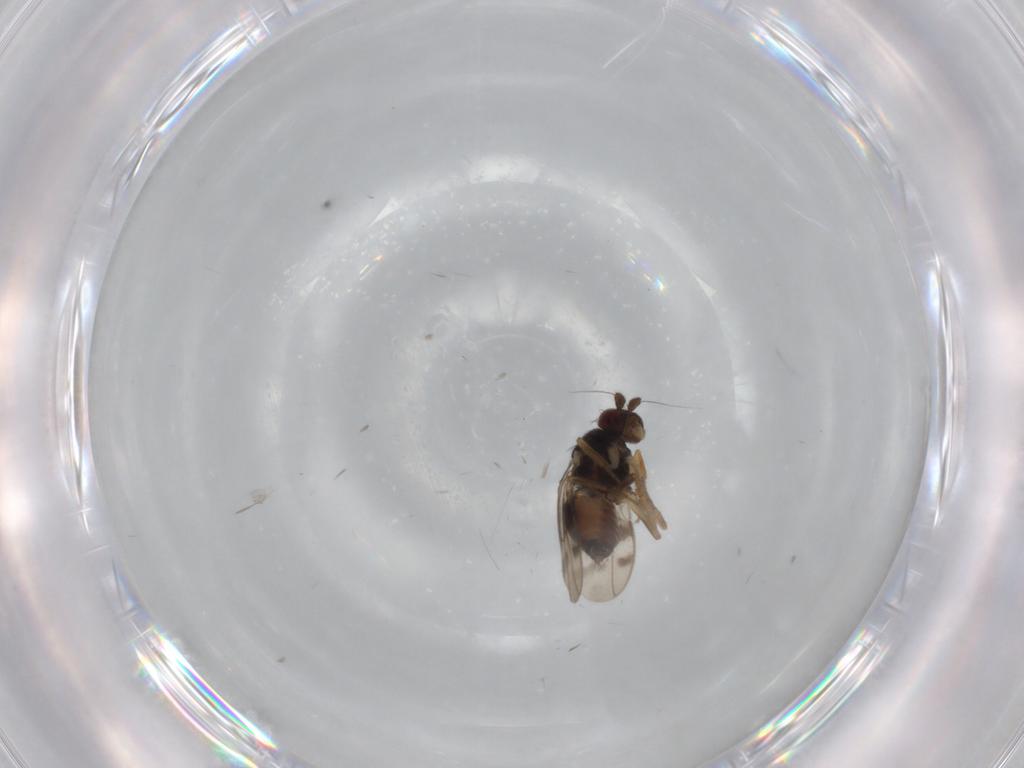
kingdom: Animalia
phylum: Arthropoda
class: Insecta
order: Diptera
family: Sphaeroceridae
